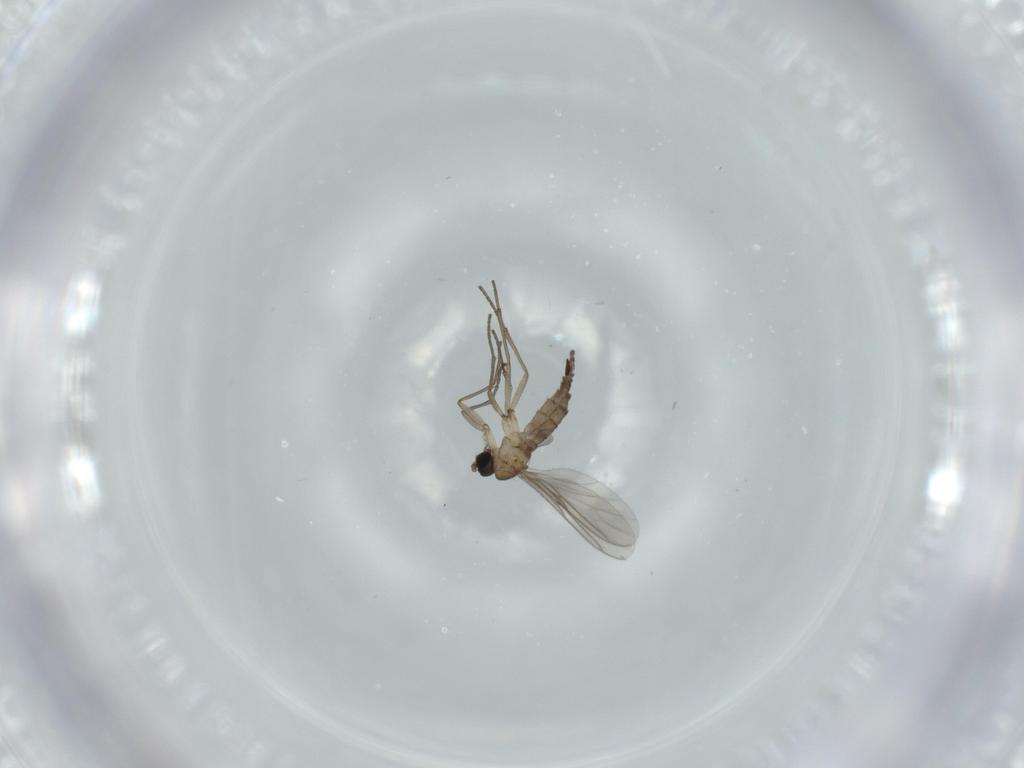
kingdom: Animalia
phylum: Arthropoda
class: Insecta
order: Diptera
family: Sciaridae
